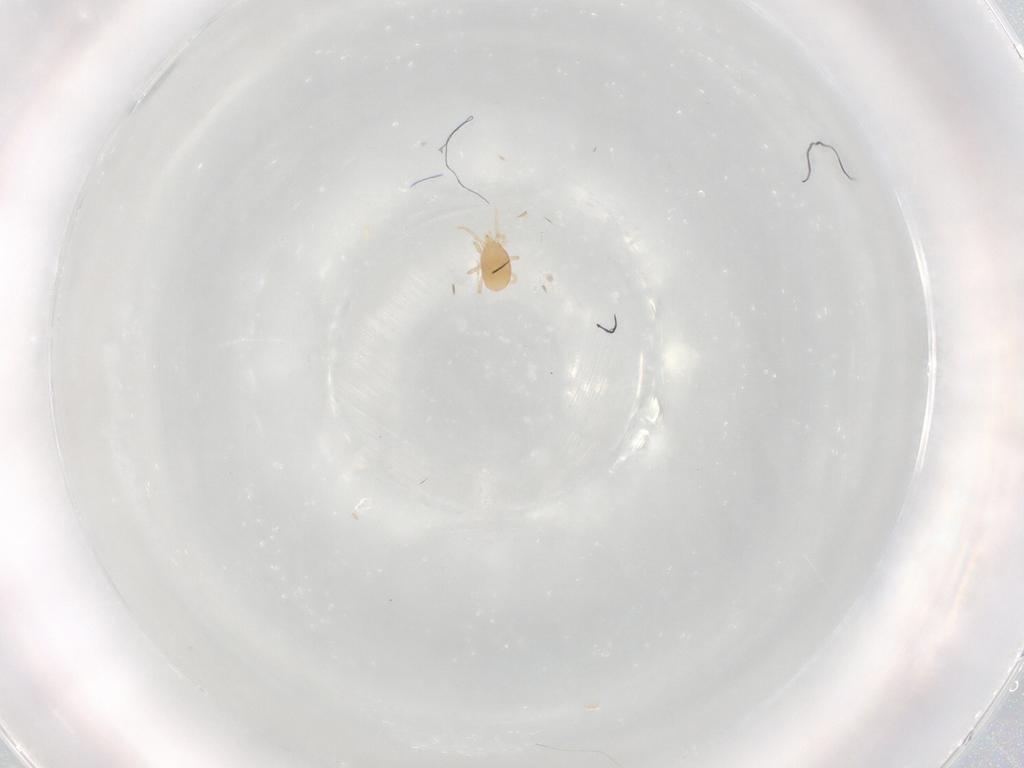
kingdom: Animalia
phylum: Arthropoda
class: Arachnida
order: Mesostigmata
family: Melicharidae
